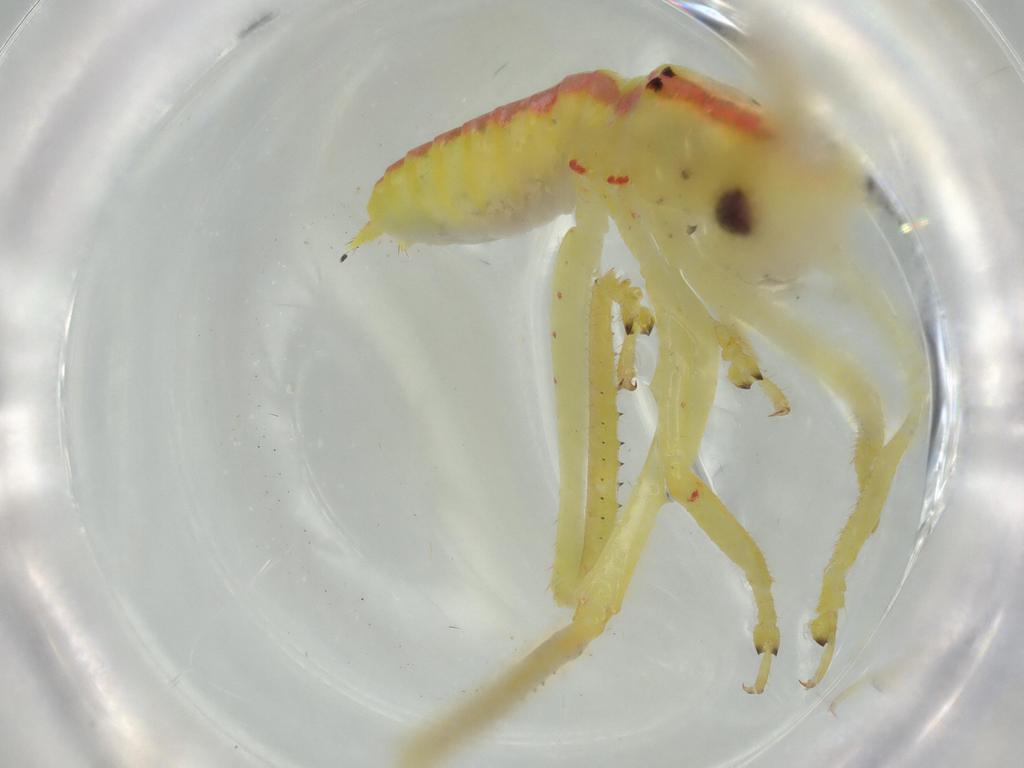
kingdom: Animalia
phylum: Arthropoda
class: Insecta
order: Orthoptera
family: Tettigoniidae
